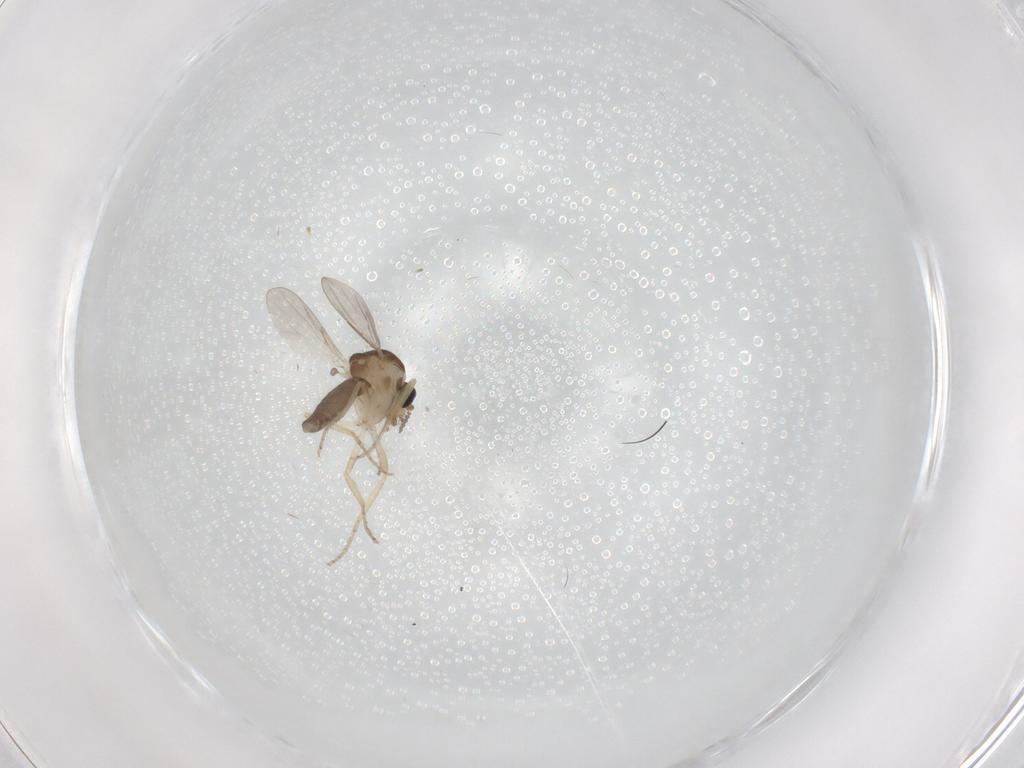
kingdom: Animalia
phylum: Arthropoda
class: Insecta
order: Diptera
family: Ceratopogonidae
